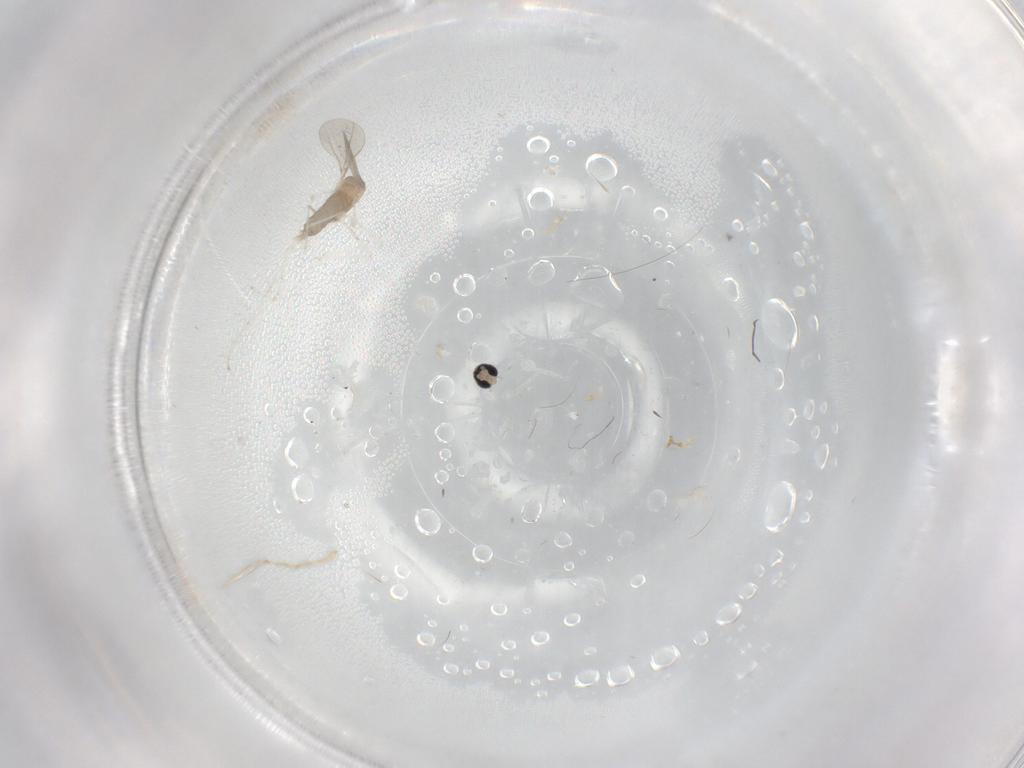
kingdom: Animalia
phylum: Arthropoda
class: Insecta
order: Diptera
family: Cecidomyiidae
